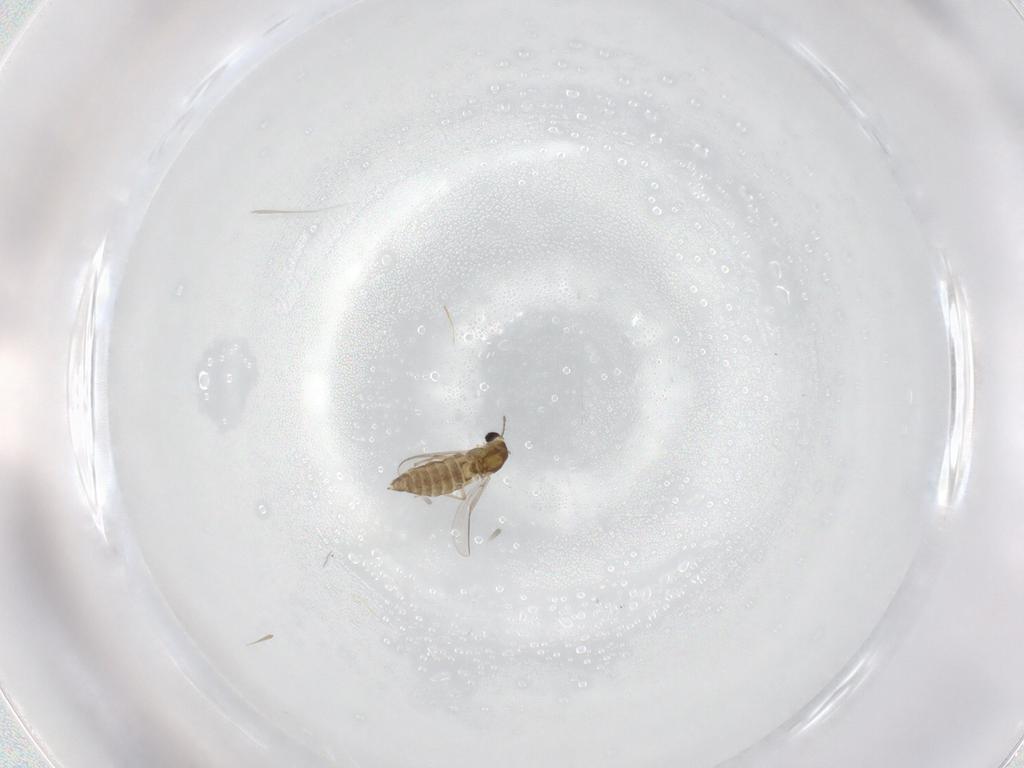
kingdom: Animalia
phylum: Arthropoda
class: Insecta
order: Diptera
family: Chironomidae
